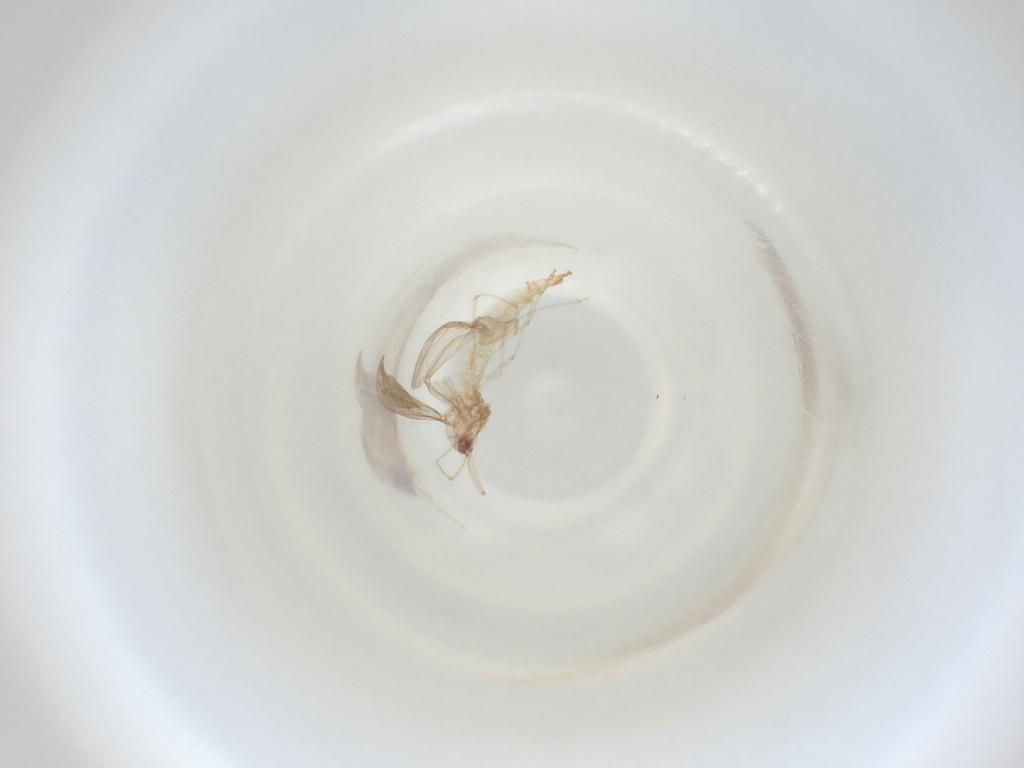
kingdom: Animalia
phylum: Arthropoda
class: Insecta
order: Diptera
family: Cecidomyiidae
